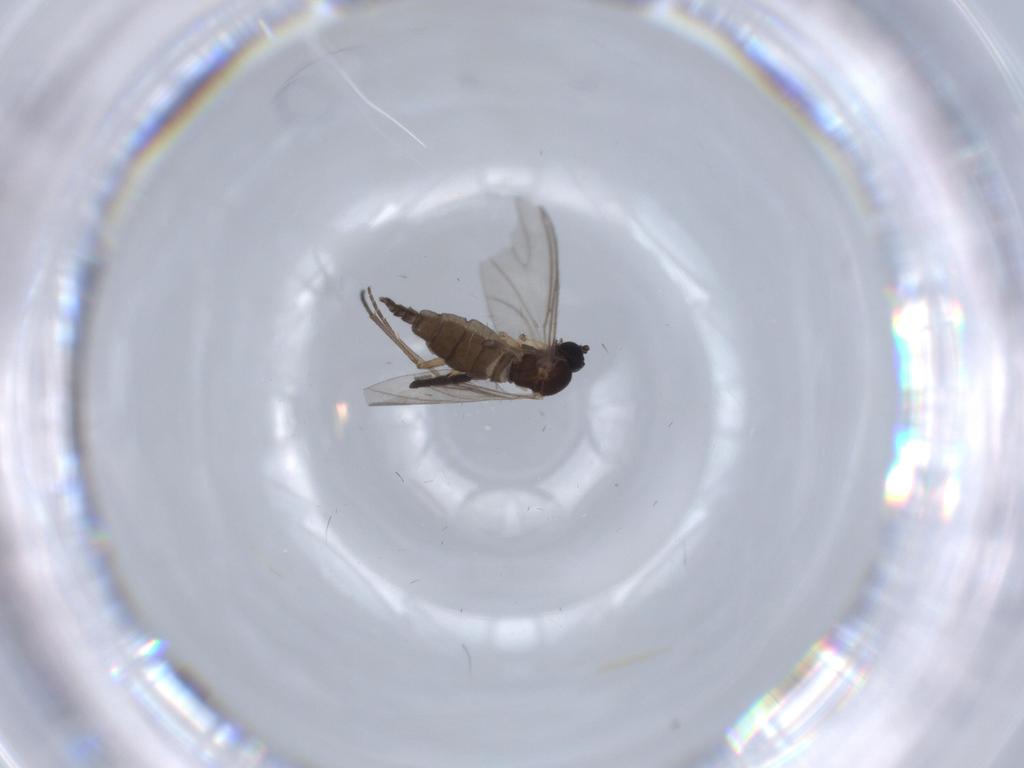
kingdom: Animalia
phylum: Arthropoda
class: Insecta
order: Diptera
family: Sciaridae
